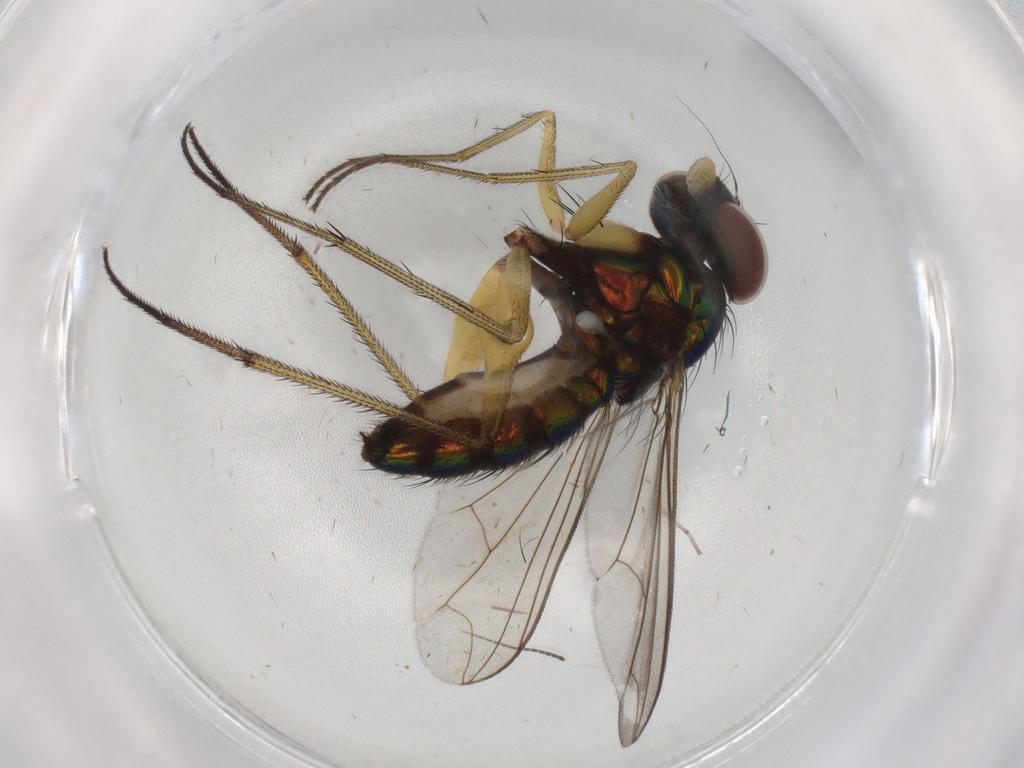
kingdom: Animalia
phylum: Arthropoda
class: Insecta
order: Diptera
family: Dolichopodidae
